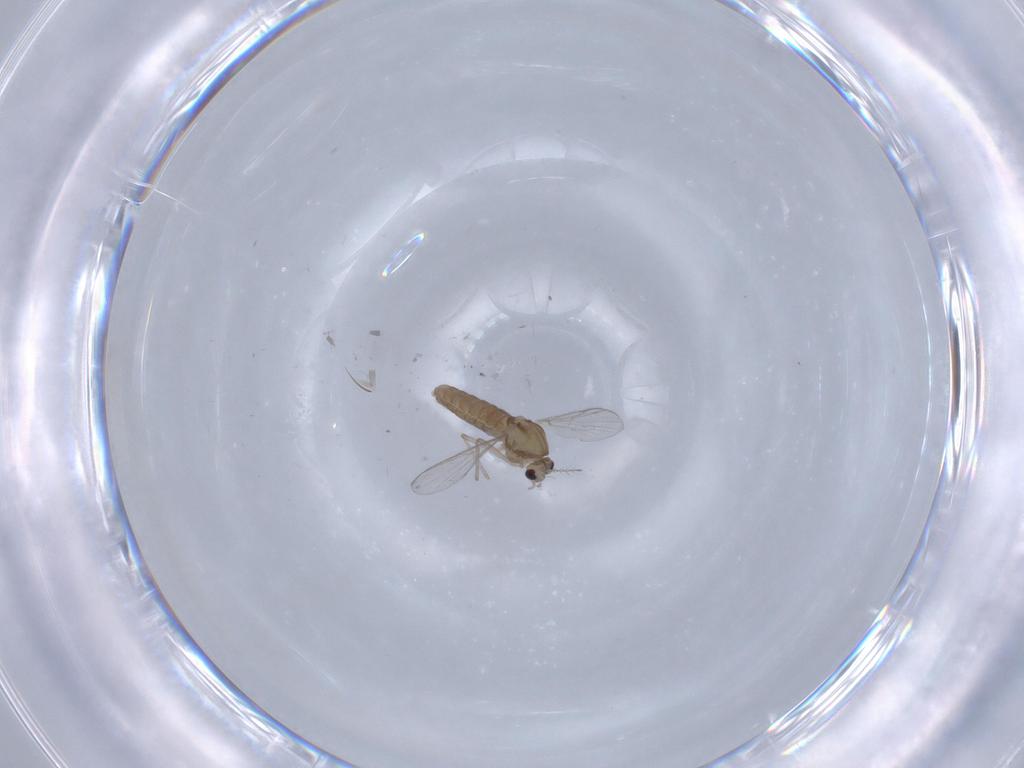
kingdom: Animalia
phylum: Arthropoda
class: Insecta
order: Diptera
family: Chironomidae
